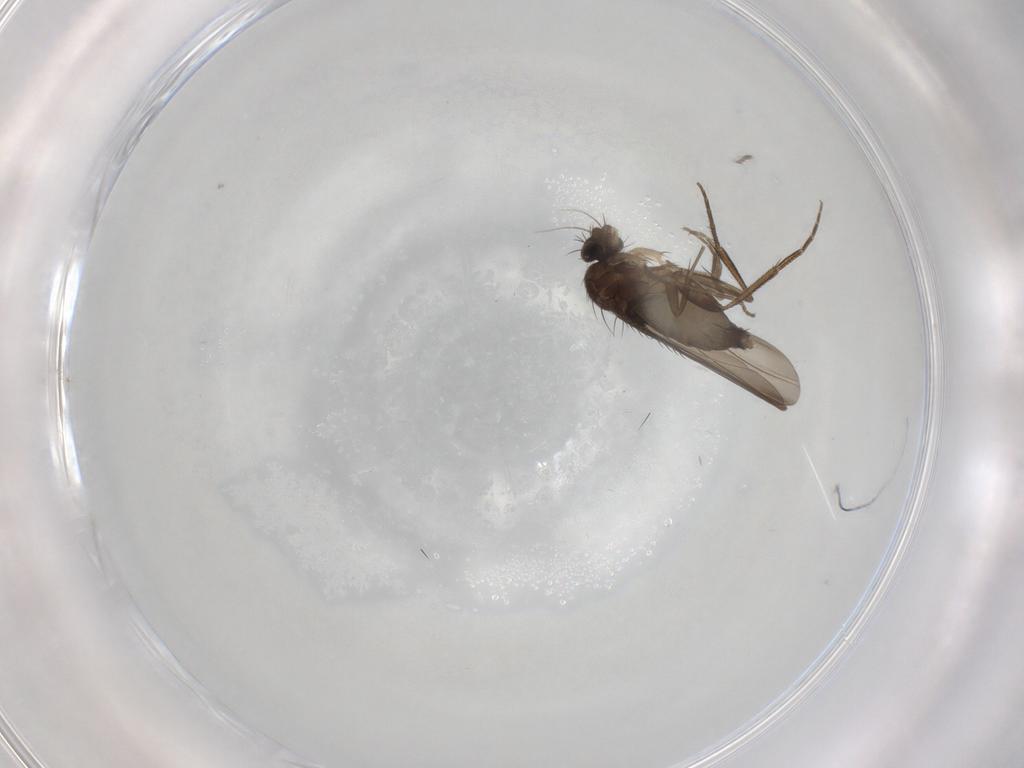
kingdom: Animalia
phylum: Arthropoda
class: Insecta
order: Diptera
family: Phoridae
